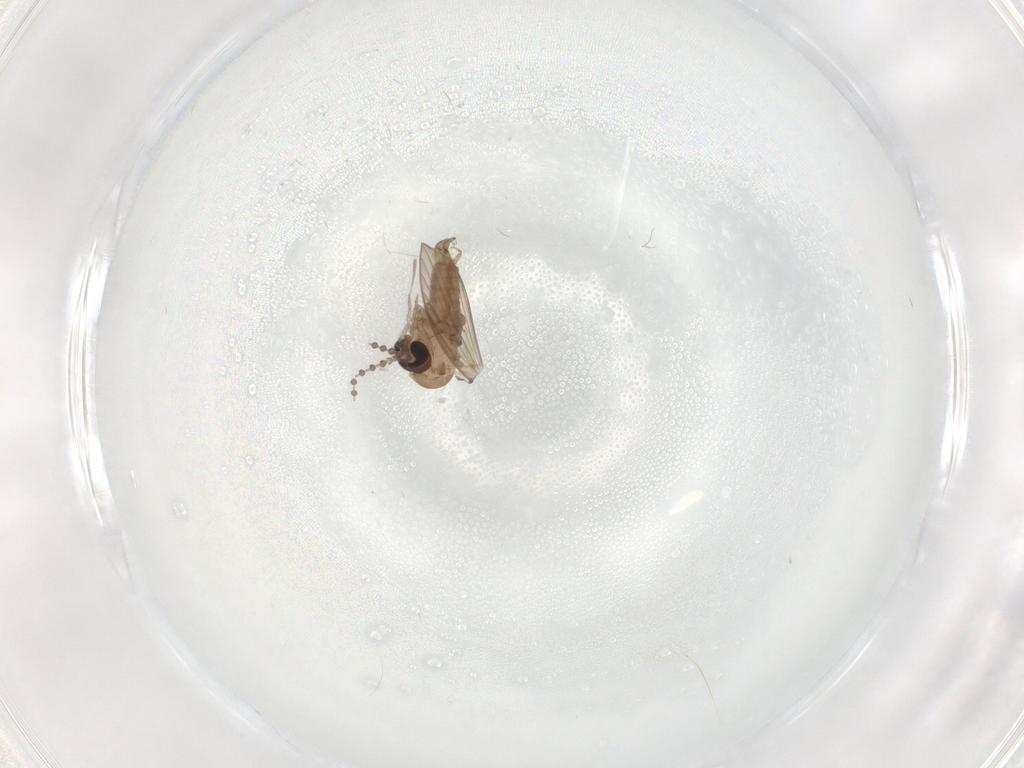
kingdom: Animalia
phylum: Arthropoda
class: Insecta
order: Diptera
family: Psychodidae
